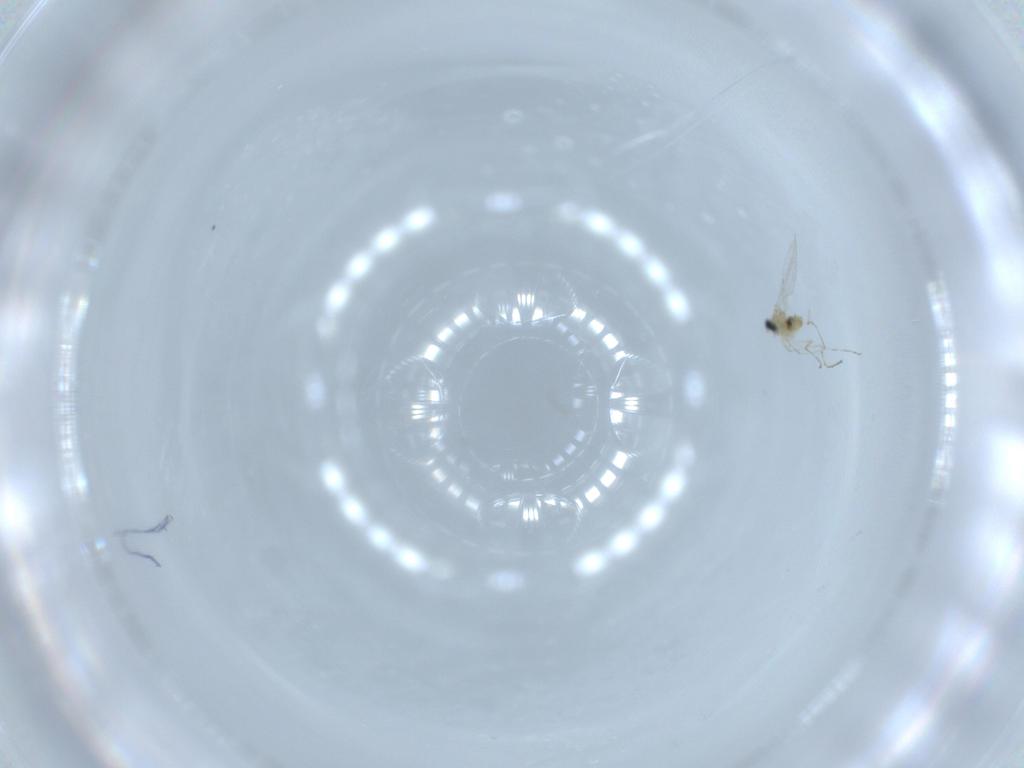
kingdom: Animalia
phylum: Arthropoda
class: Insecta
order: Diptera
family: Cecidomyiidae
